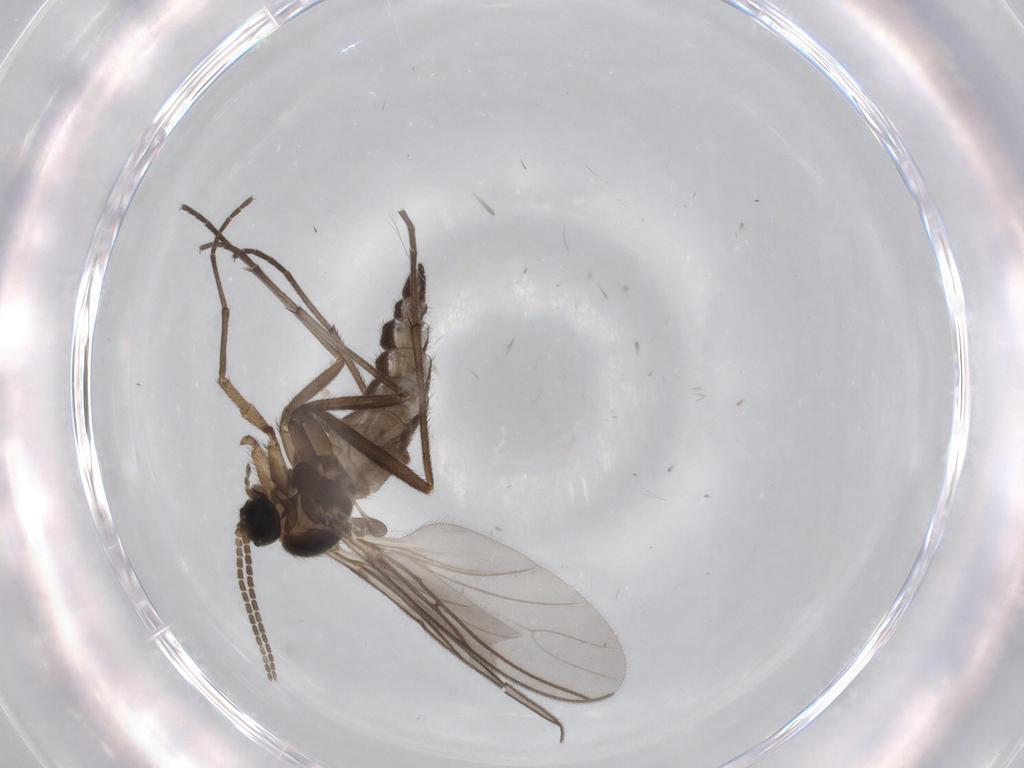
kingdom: Animalia
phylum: Arthropoda
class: Insecta
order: Diptera
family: Sciaridae
